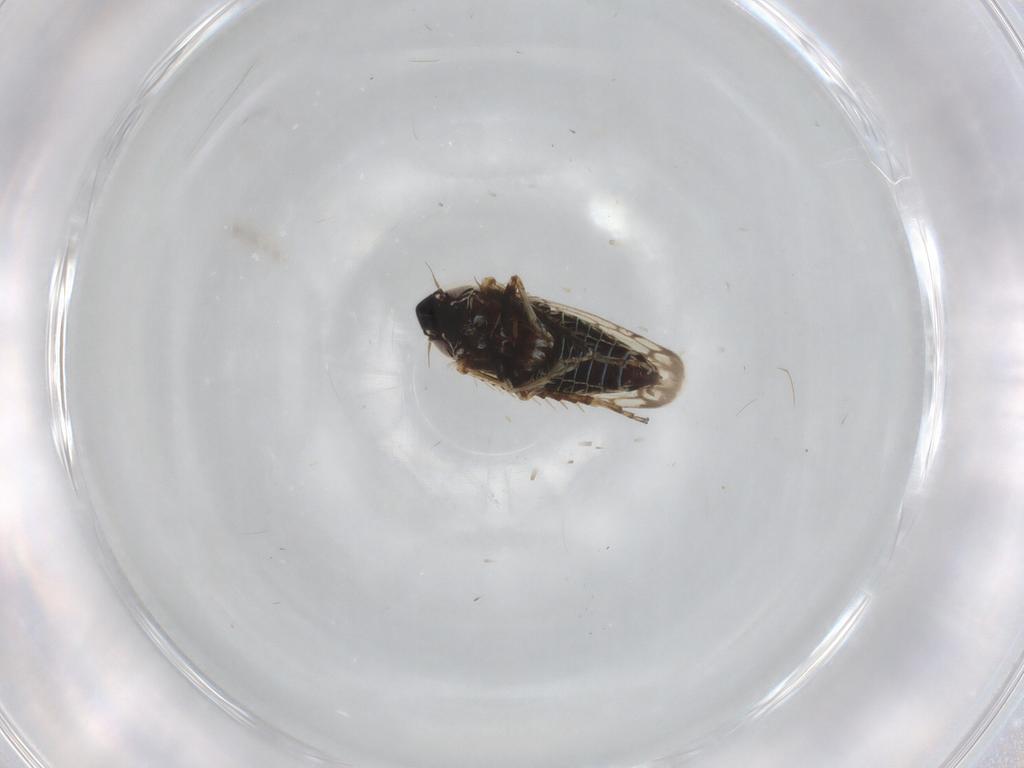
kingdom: Animalia
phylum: Arthropoda
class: Insecta
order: Hemiptera
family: Cicadellidae
